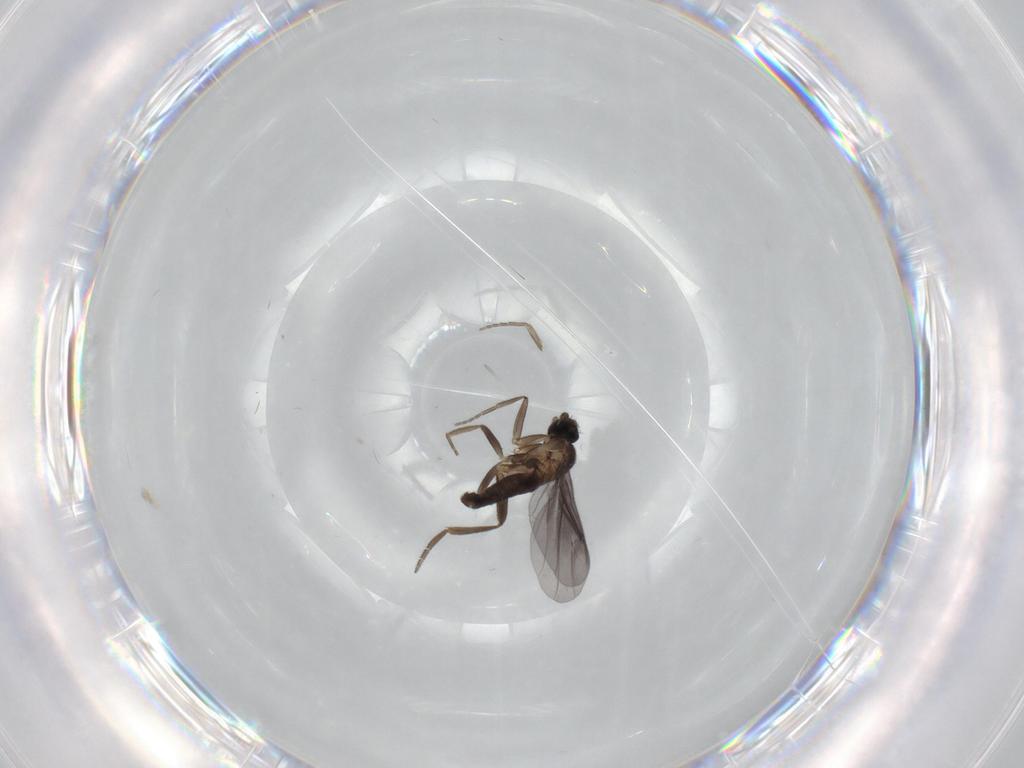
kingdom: Animalia
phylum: Arthropoda
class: Insecta
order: Diptera
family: Chironomidae
